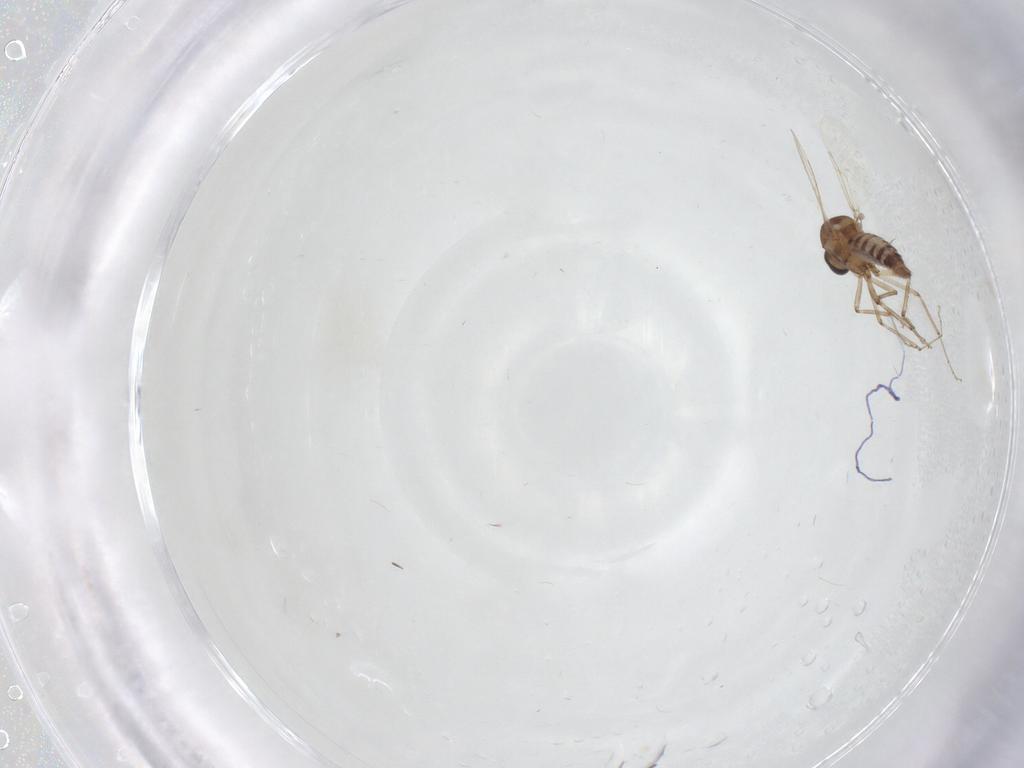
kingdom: Animalia
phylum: Arthropoda
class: Insecta
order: Diptera
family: Ceratopogonidae
